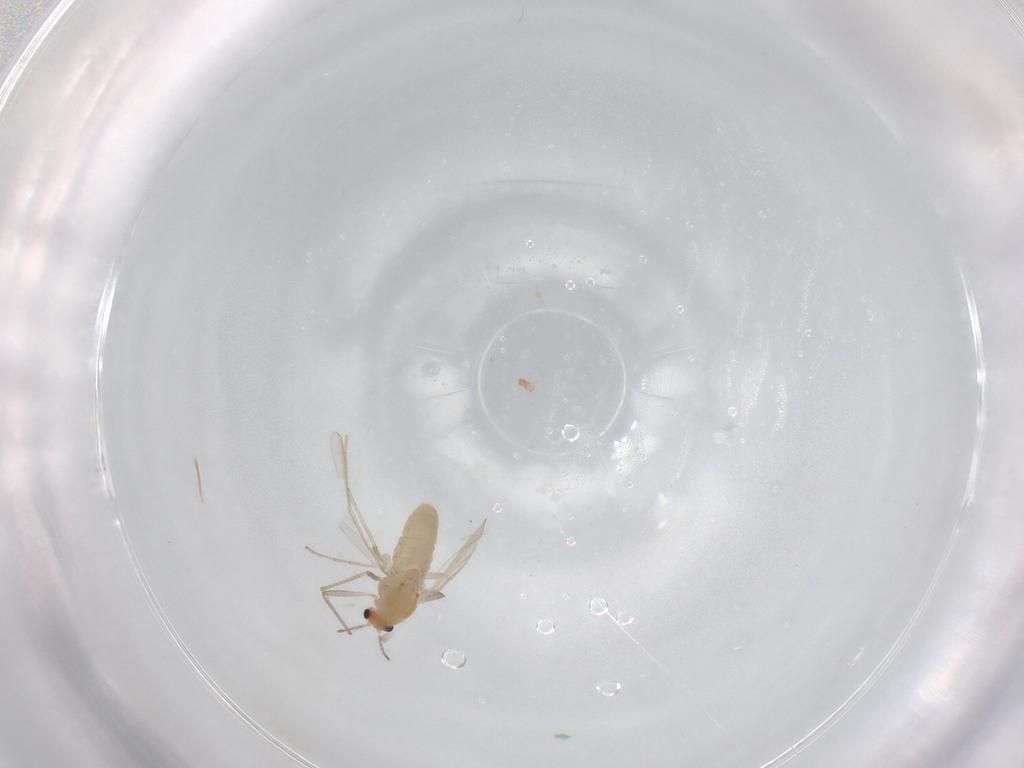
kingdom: Animalia
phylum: Arthropoda
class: Insecta
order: Diptera
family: Chironomidae
